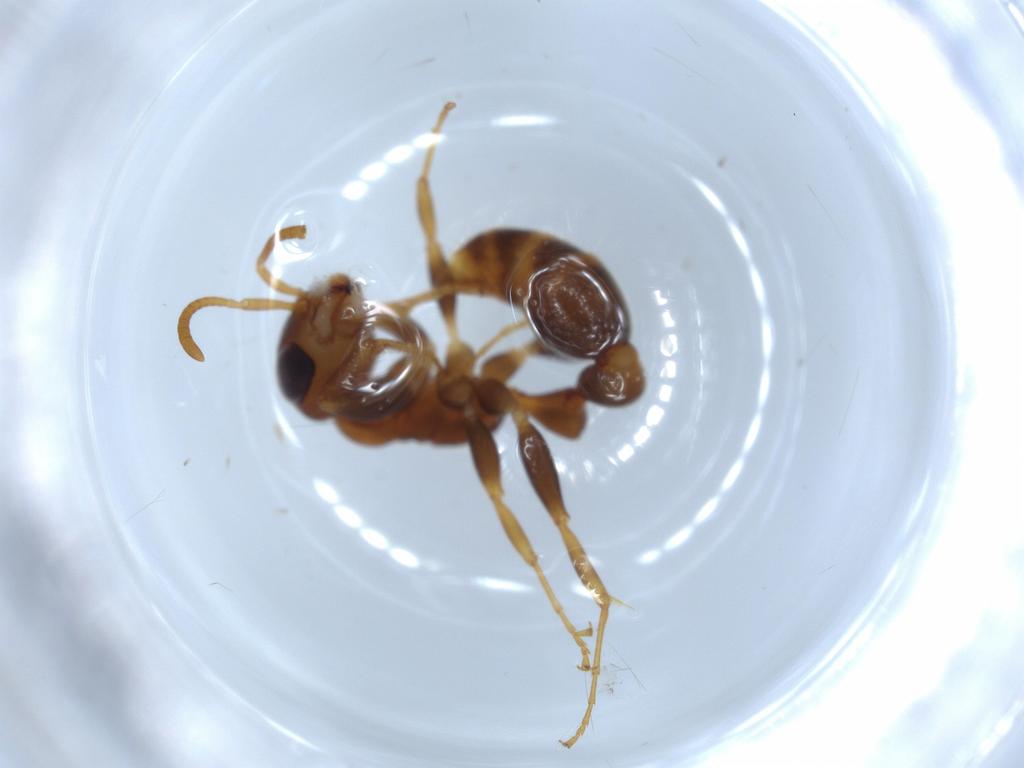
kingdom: Animalia
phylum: Arthropoda
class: Insecta
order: Hymenoptera
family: Formicidae
